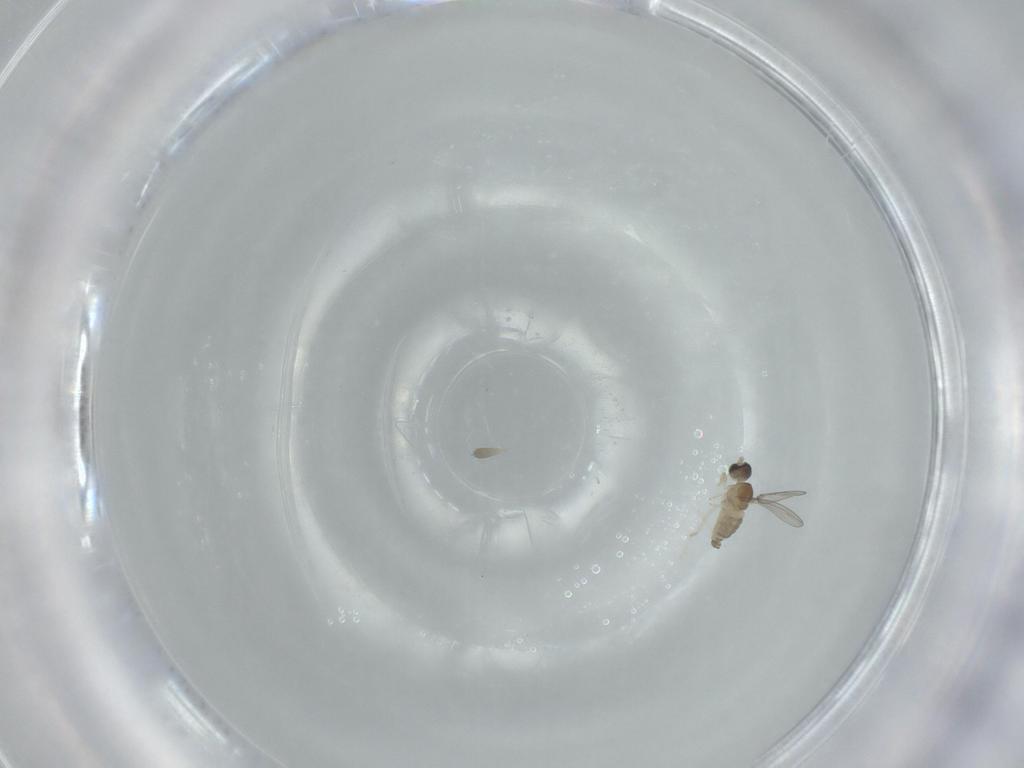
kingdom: Animalia
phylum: Arthropoda
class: Insecta
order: Diptera
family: Cecidomyiidae
